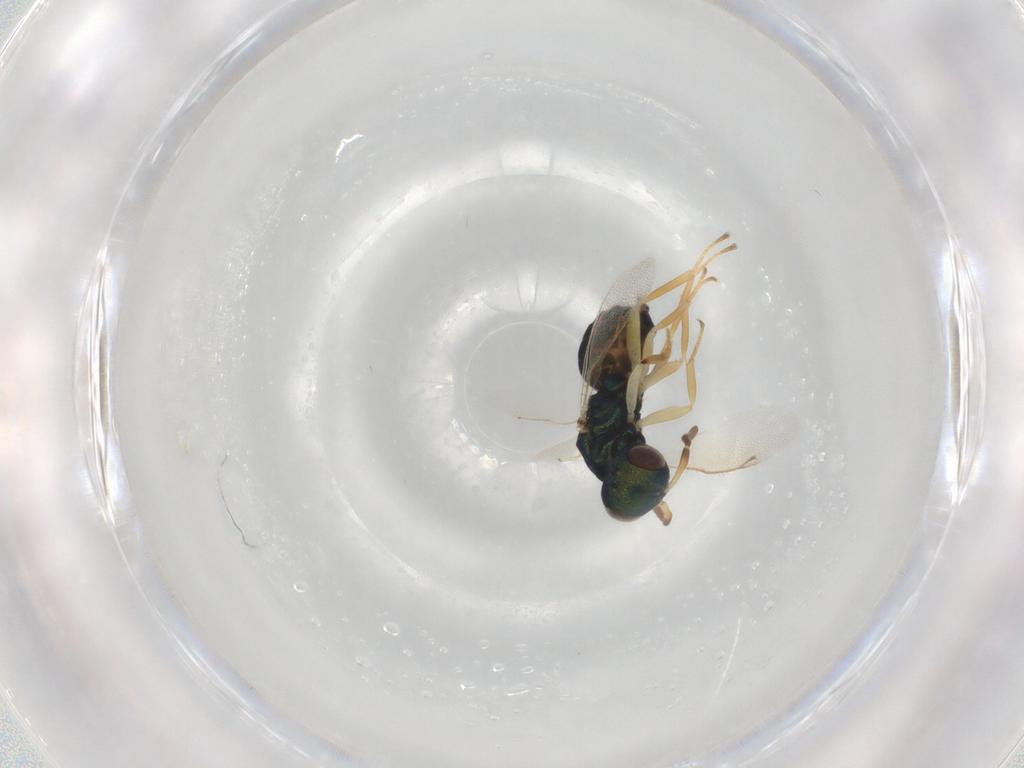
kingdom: Animalia
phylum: Arthropoda
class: Insecta
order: Hymenoptera
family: Pteromalidae
